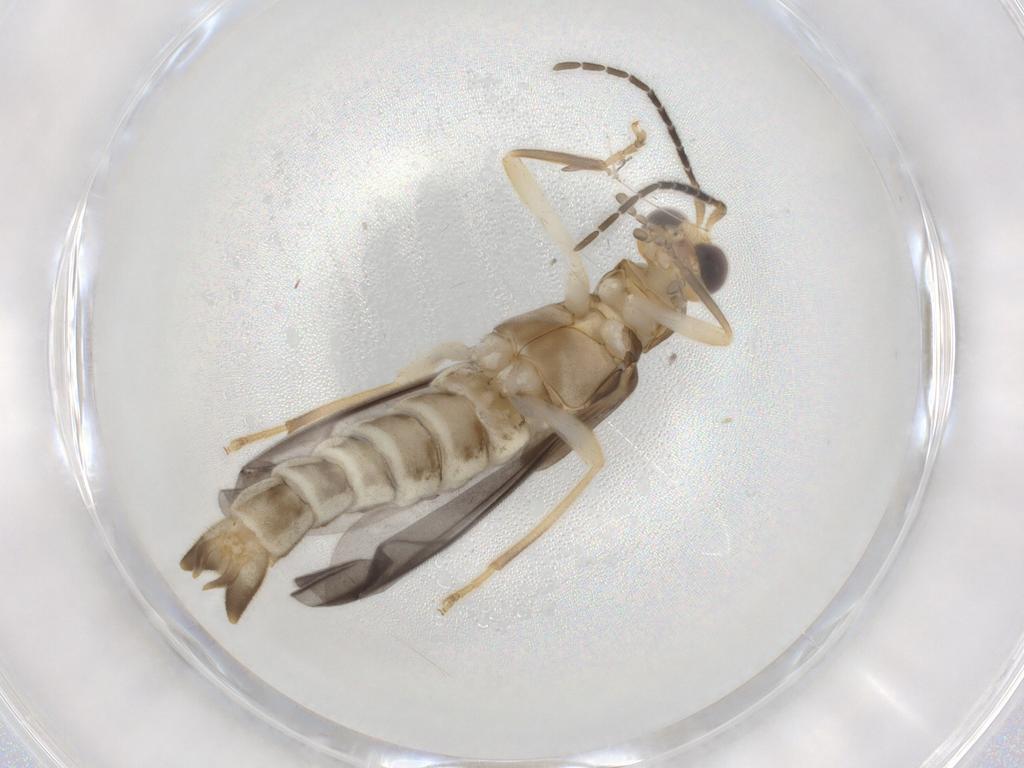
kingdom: Animalia
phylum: Arthropoda
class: Insecta
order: Coleoptera
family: Cantharidae
